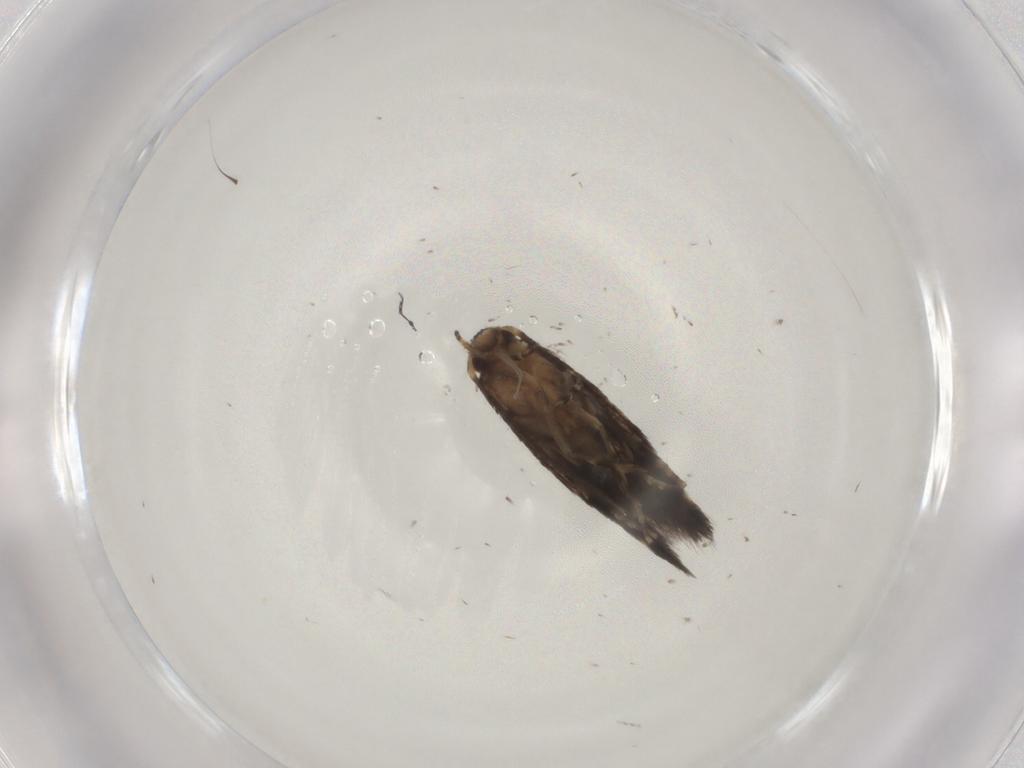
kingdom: Animalia
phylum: Arthropoda
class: Insecta
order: Lepidoptera
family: Elachistidae
